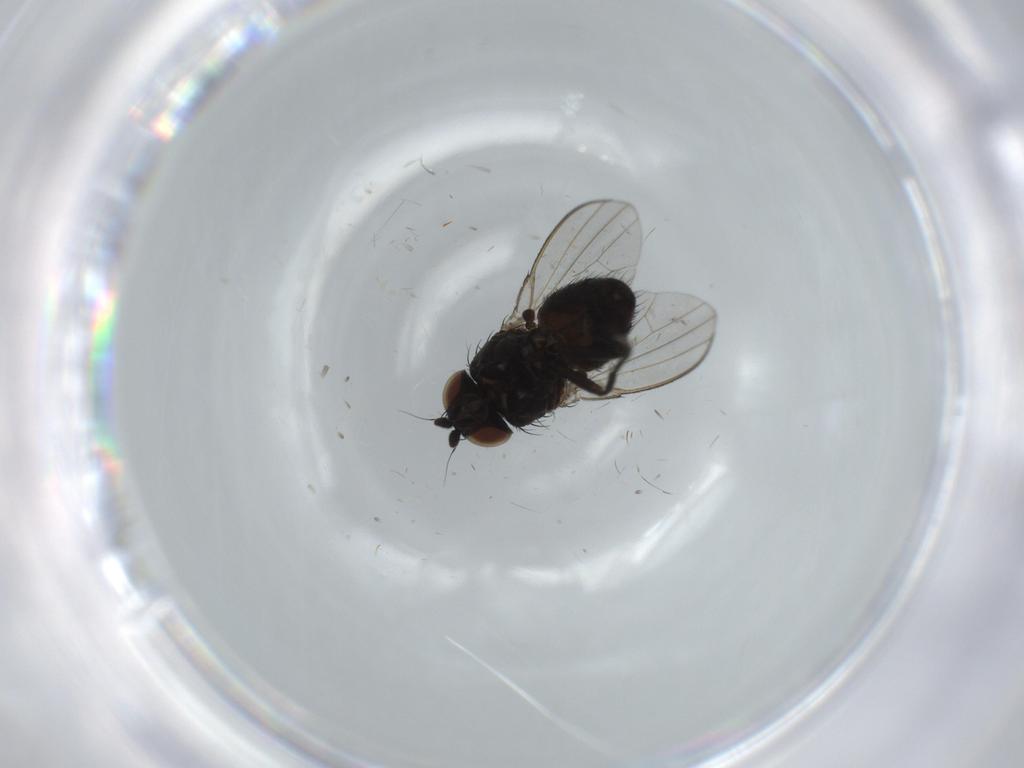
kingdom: Animalia
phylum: Arthropoda
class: Insecta
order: Diptera
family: Milichiidae
